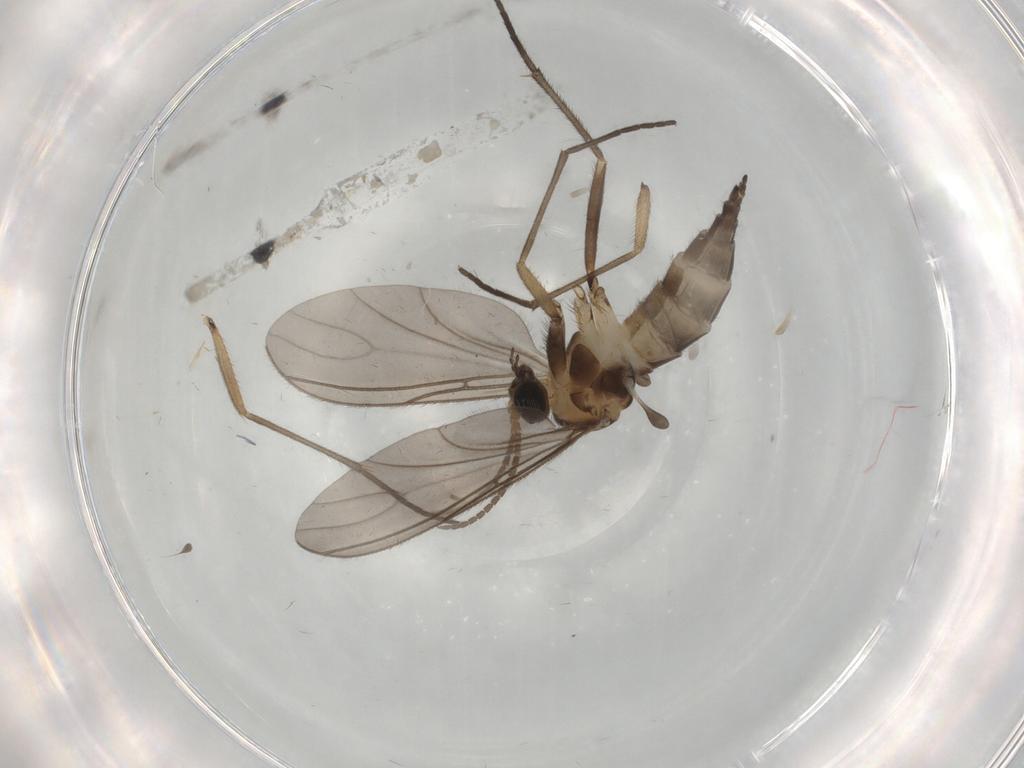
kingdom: Animalia
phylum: Arthropoda
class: Insecta
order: Diptera
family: Sciaridae
